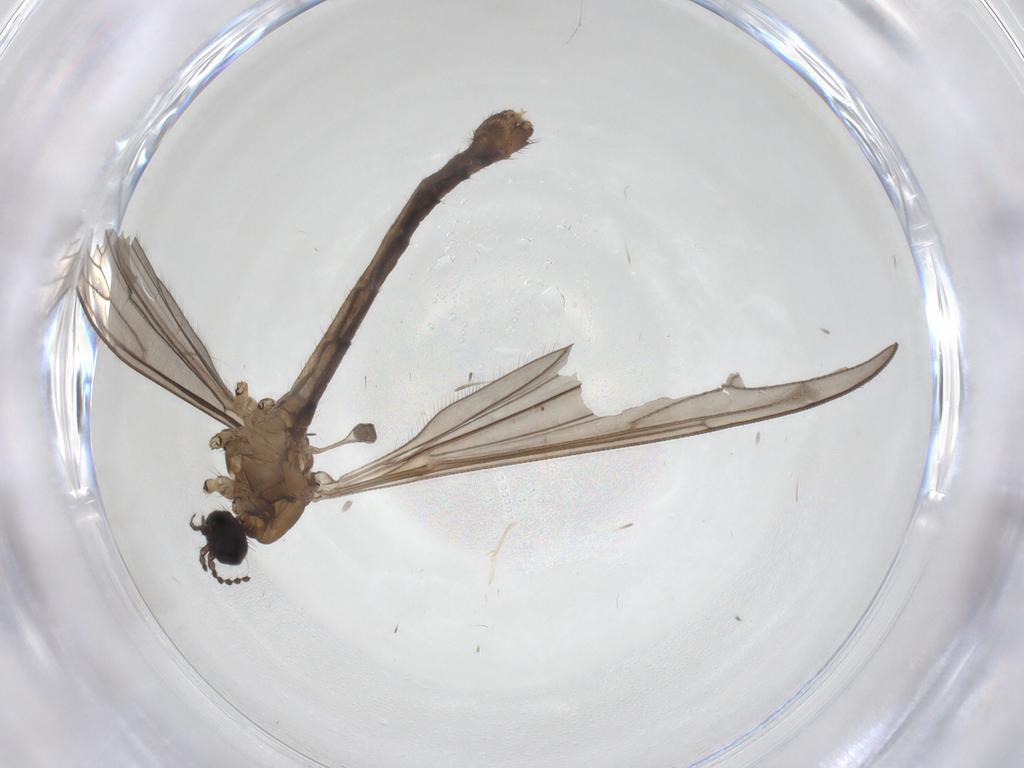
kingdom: Animalia
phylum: Arthropoda
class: Insecta
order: Diptera
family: Limoniidae
